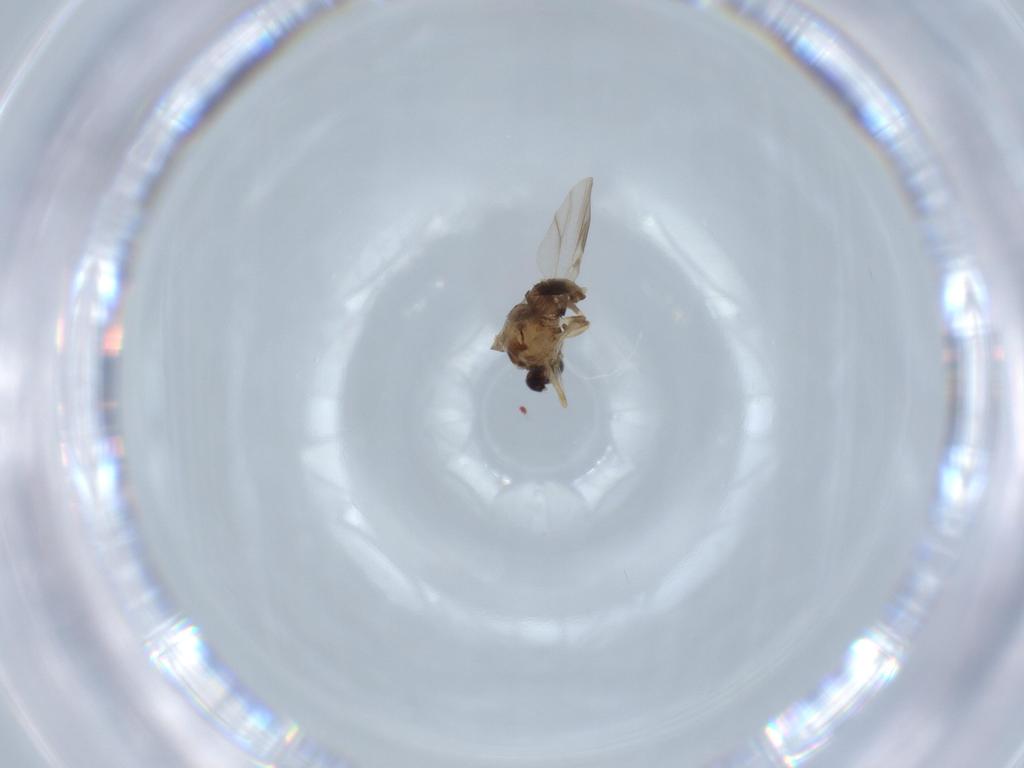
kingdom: Animalia
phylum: Arthropoda
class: Insecta
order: Diptera
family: Ceratopogonidae
